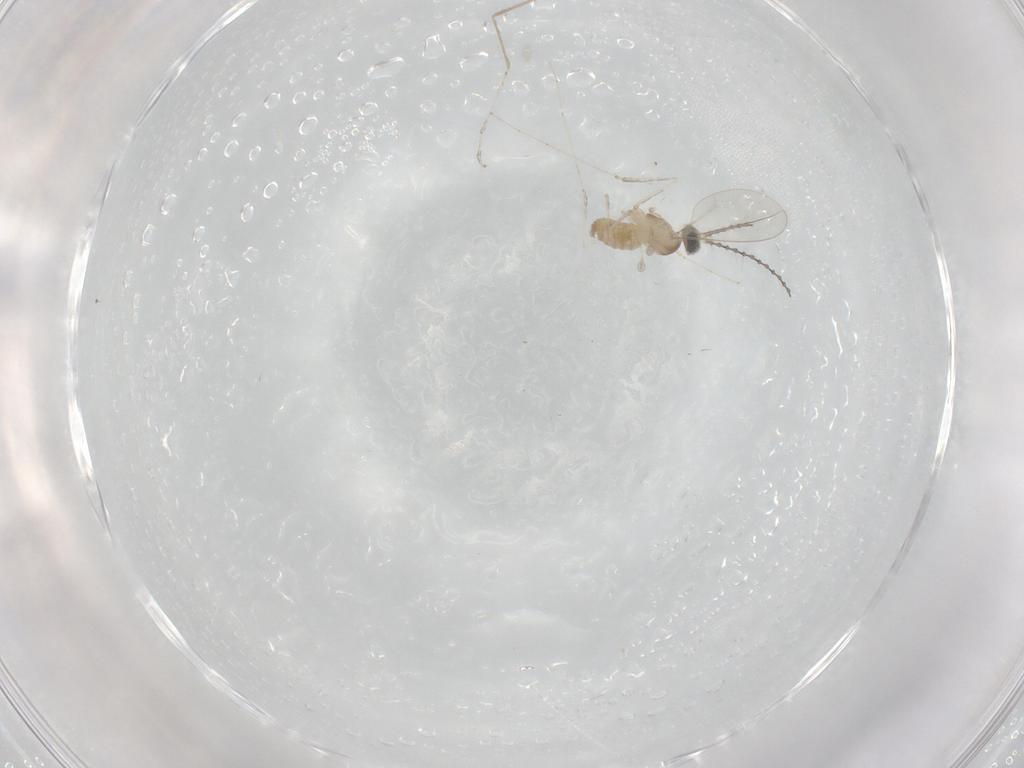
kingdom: Animalia
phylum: Arthropoda
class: Insecta
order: Diptera
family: Cecidomyiidae
